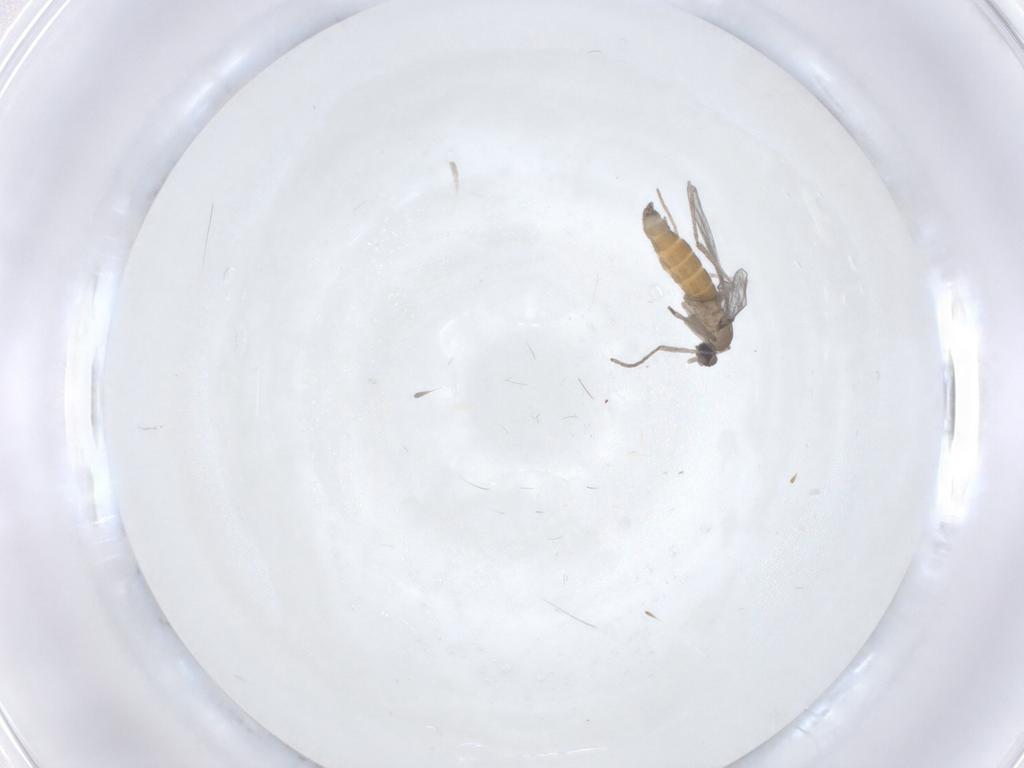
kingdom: Animalia
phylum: Arthropoda
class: Insecta
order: Diptera
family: Cecidomyiidae
